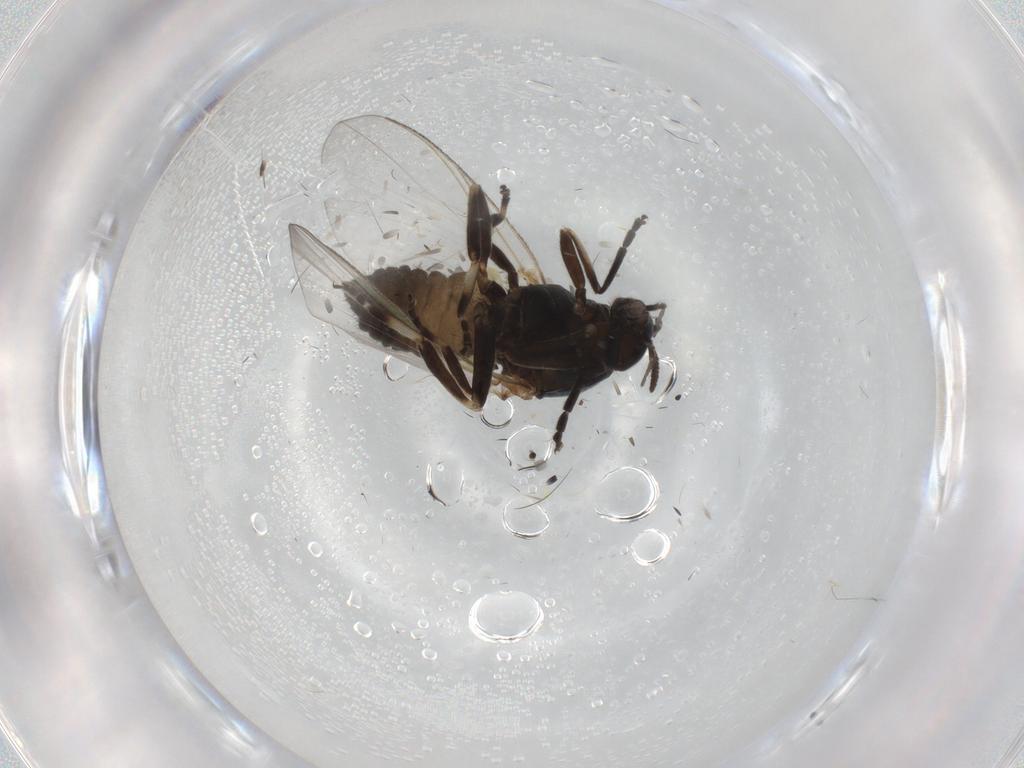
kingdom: Animalia
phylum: Arthropoda
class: Insecta
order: Diptera
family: Simuliidae
